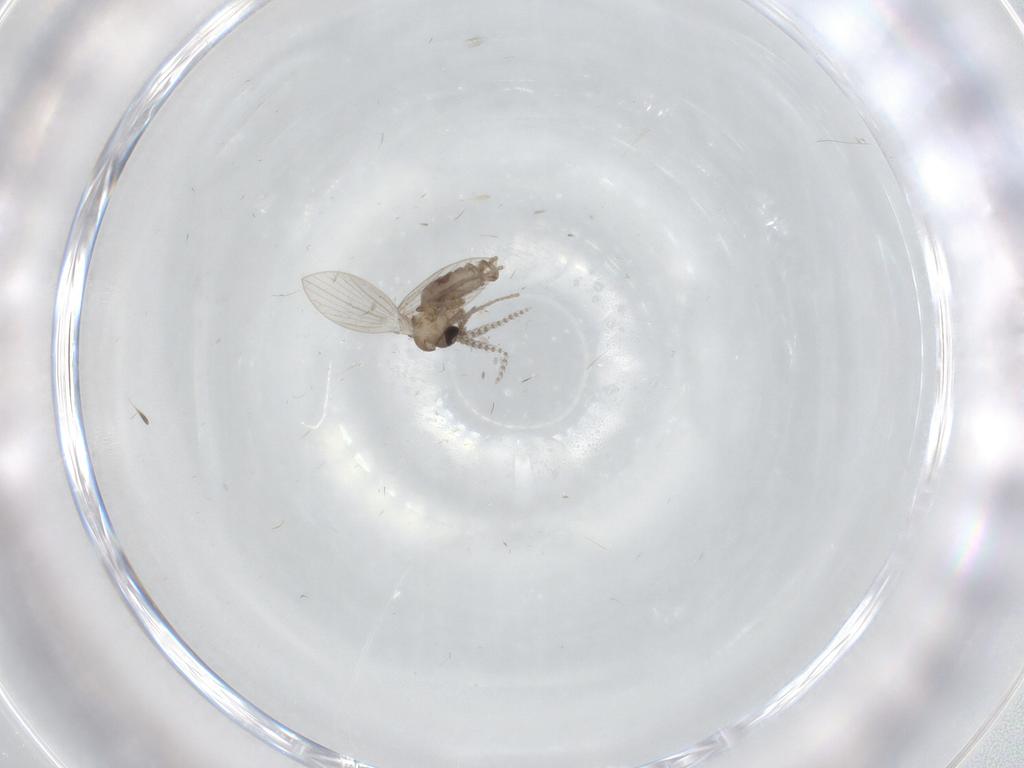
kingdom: Animalia
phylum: Arthropoda
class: Insecta
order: Diptera
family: Psychodidae
